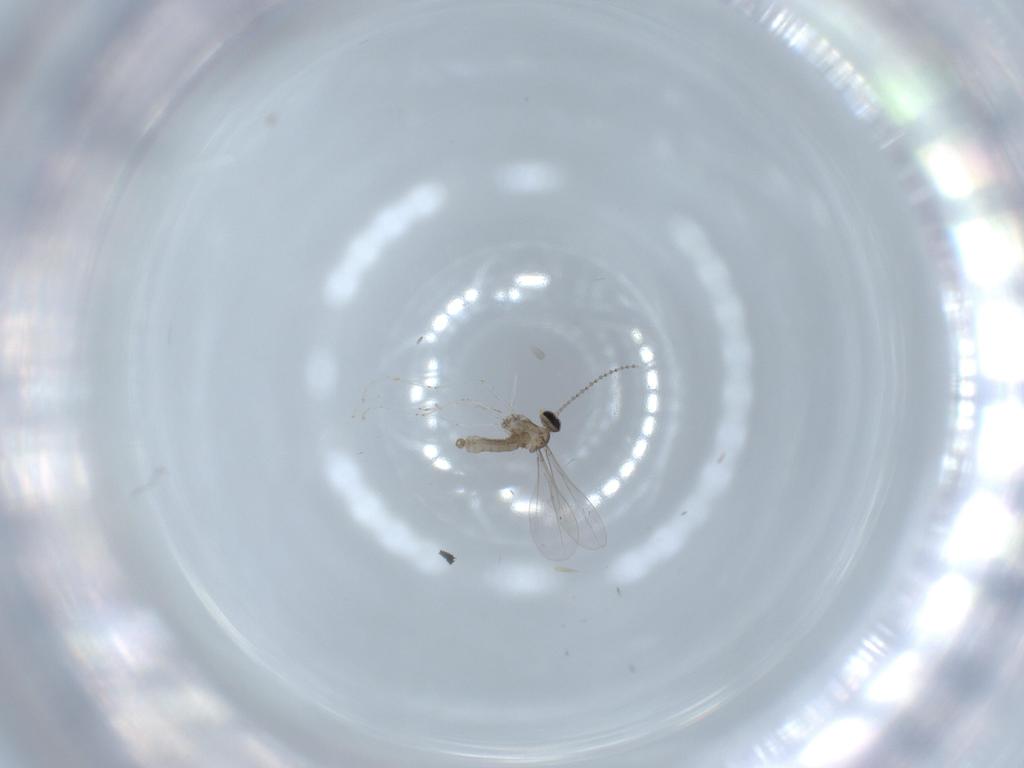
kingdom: Animalia
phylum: Arthropoda
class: Insecta
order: Diptera
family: Cecidomyiidae
